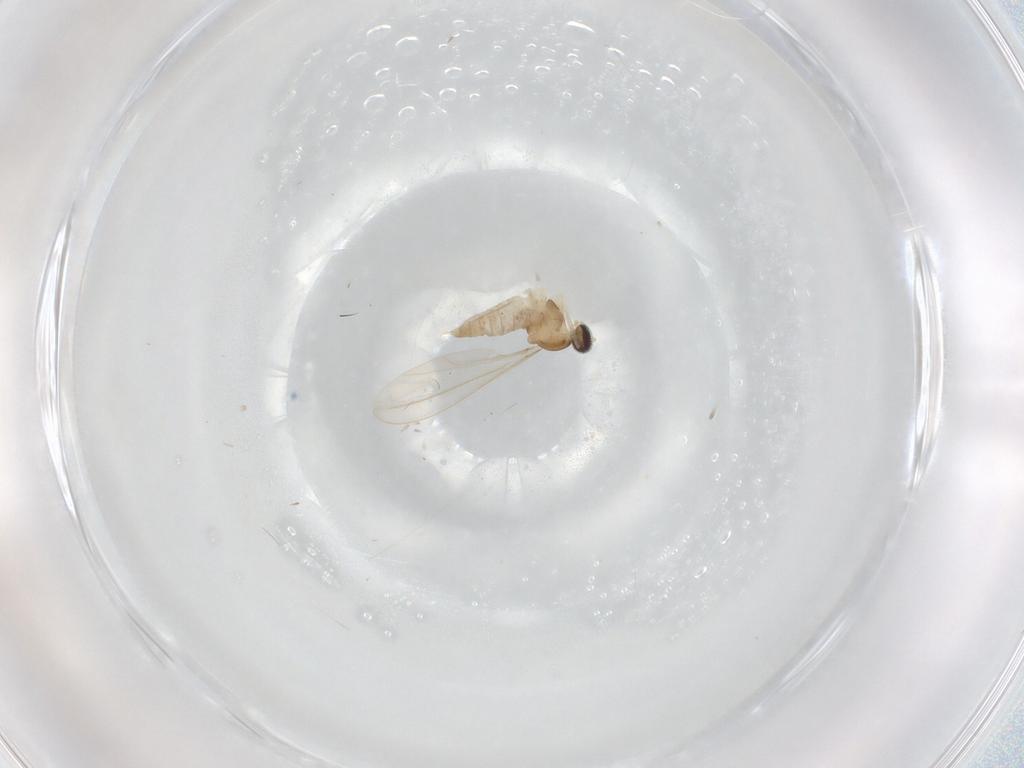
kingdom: Animalia
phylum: Arthropoda
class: Insecta
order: Diptera
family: Cecidomyiidae
